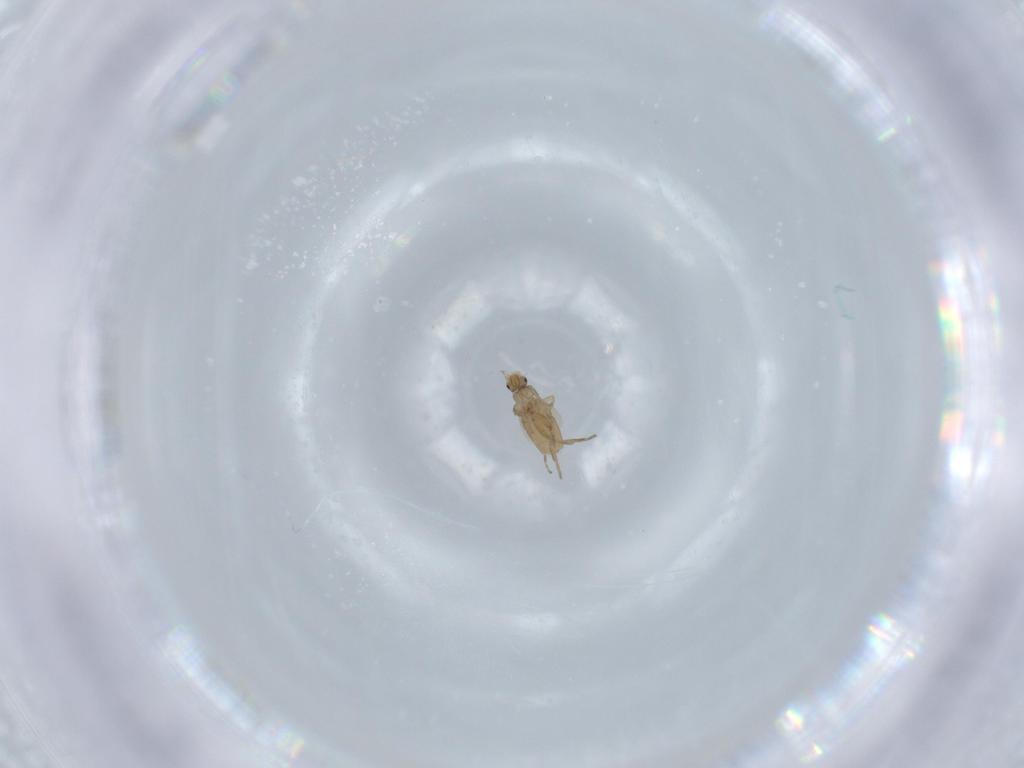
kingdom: Animalia
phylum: Arthropoda
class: Insecta
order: Diptera
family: Phoridae
